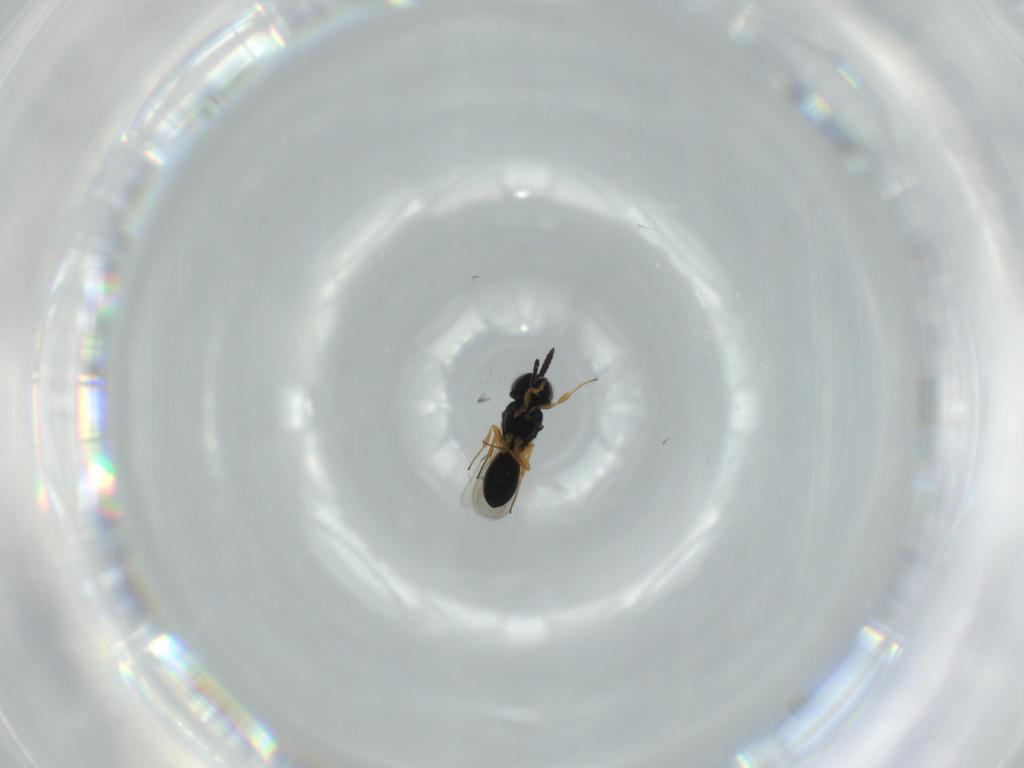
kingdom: Animalia
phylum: Arthropoda
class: Insecta
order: Hymenoptera
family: Scelionidae
